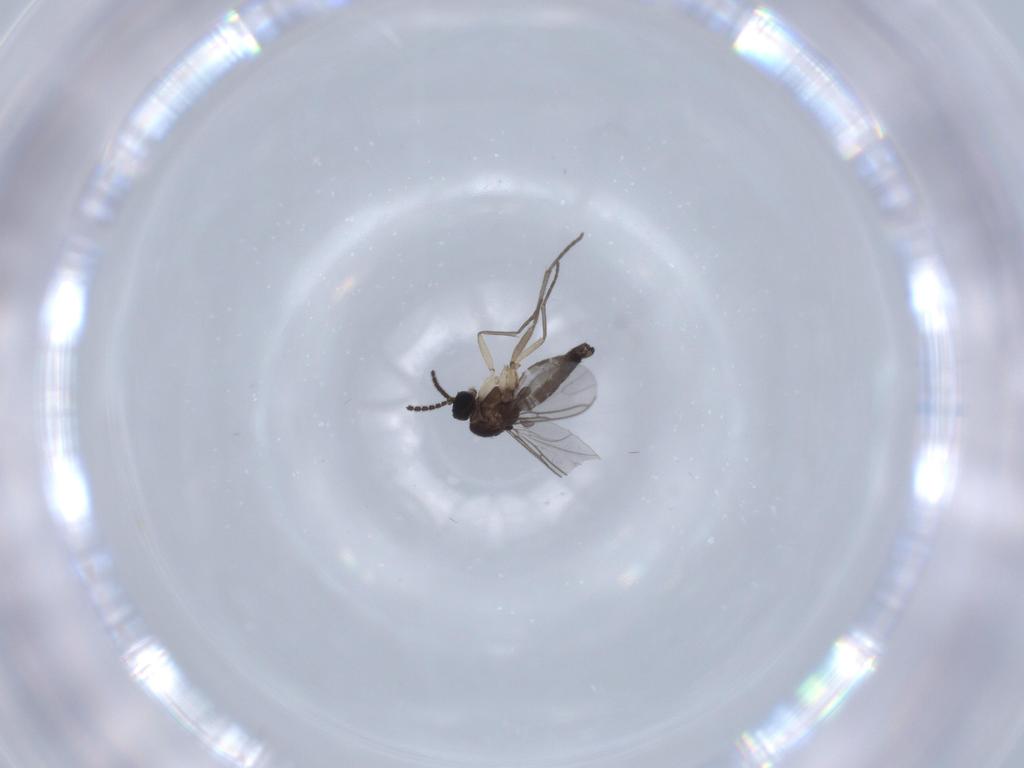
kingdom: Animalia
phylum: Arthropoda
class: Insecta
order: Diptera
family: Sciaridae
